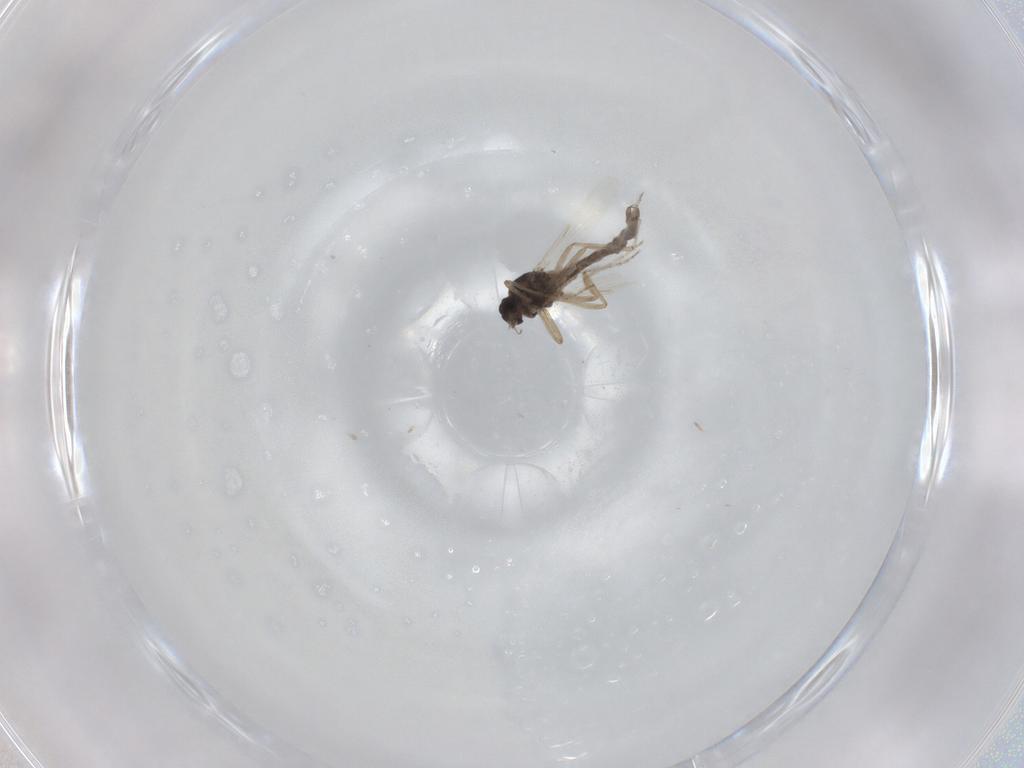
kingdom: Animalia
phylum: Arthropoda
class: Insecta
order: Diptera
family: Ceratopogonidae
